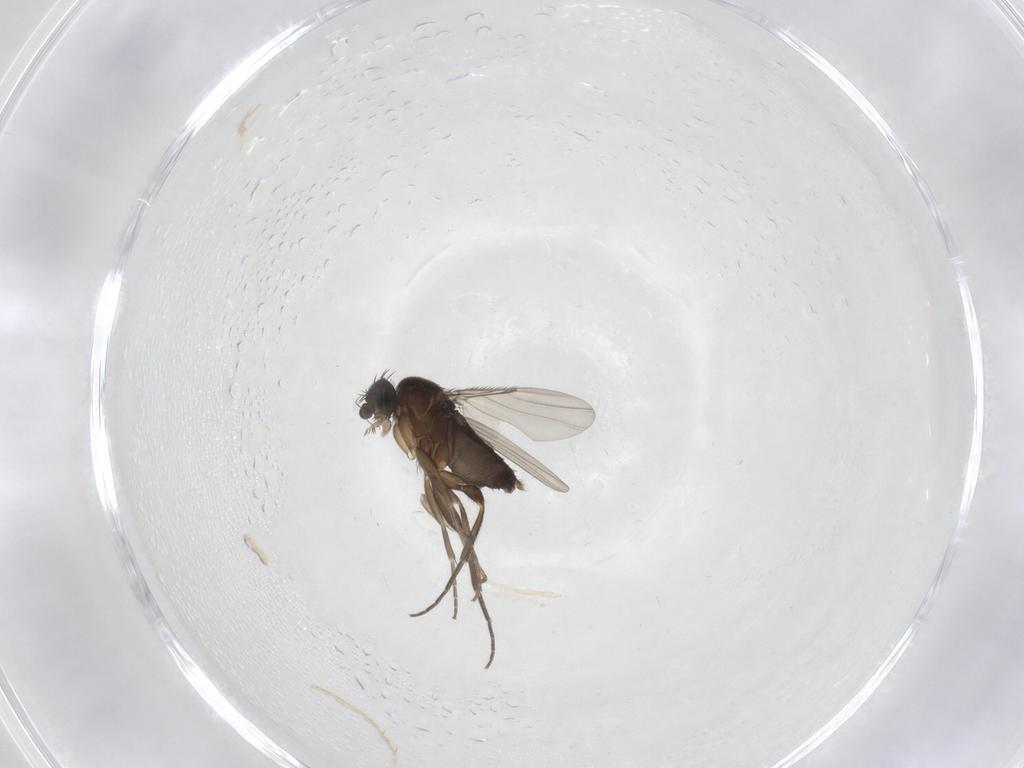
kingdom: Animalia
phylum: Arthropoda
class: Insecta
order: Diptera
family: Phoridae
